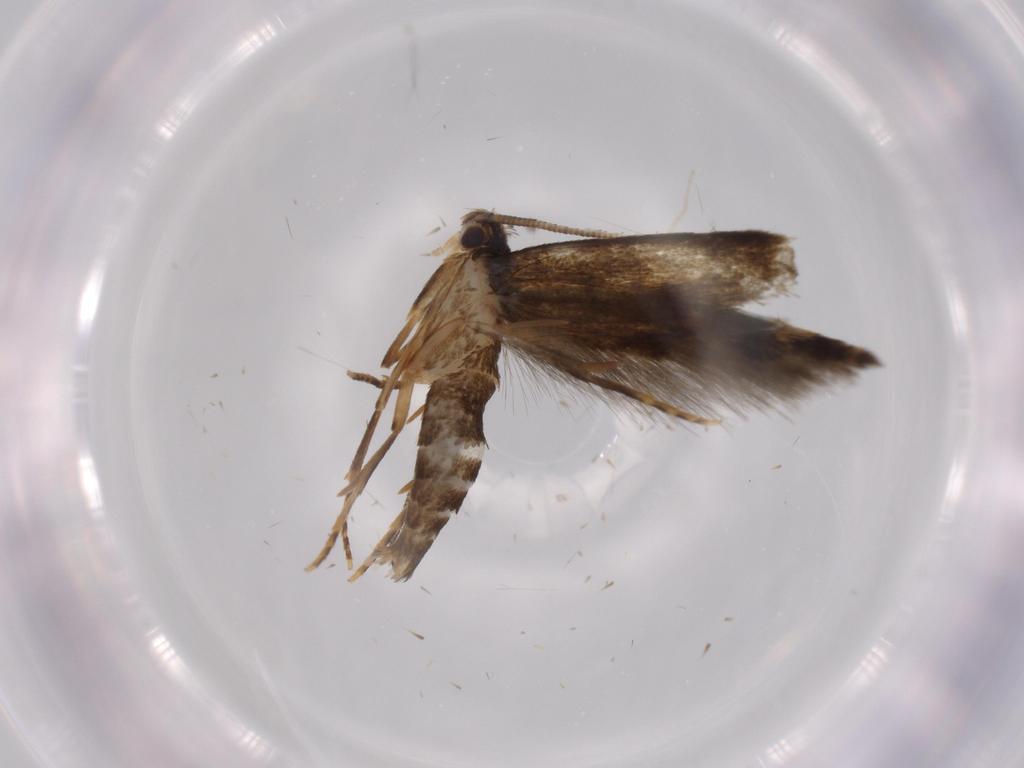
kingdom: Animalia
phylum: Arthropoda
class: Insecta
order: Lepidoptera
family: Tineidae
